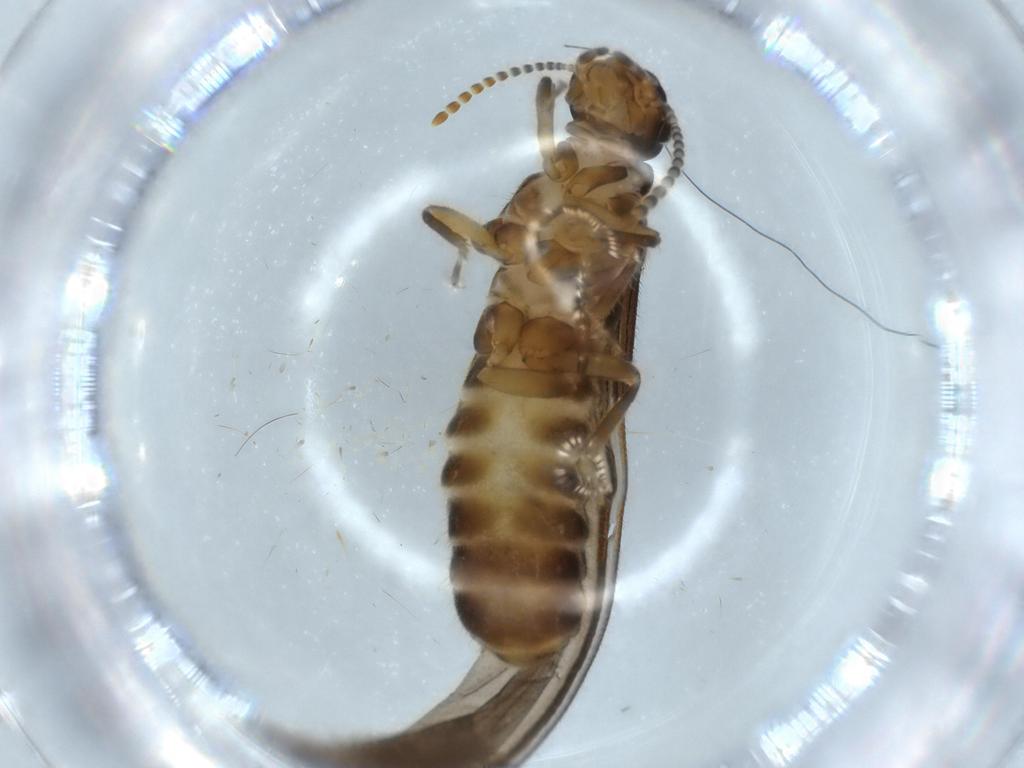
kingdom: Animalia
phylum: Arthropoda
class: Insecta
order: Blattodea
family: Termitidae
